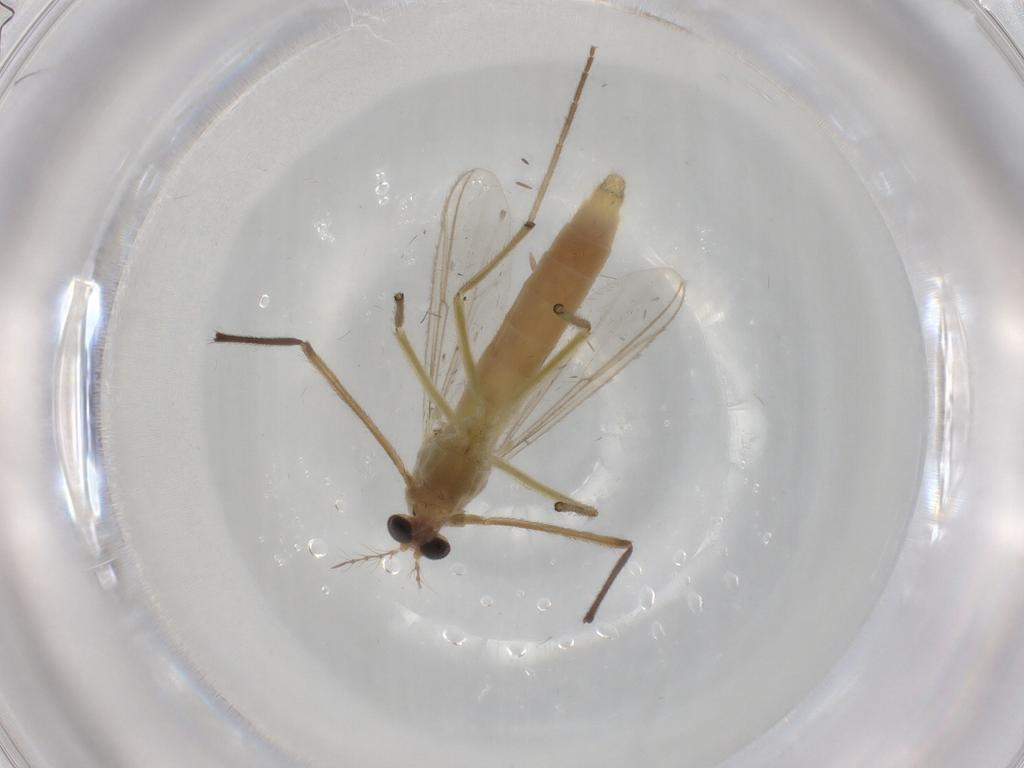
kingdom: Animalia
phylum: Arthropoda
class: Insecta
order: Diptera
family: Chironomidae
